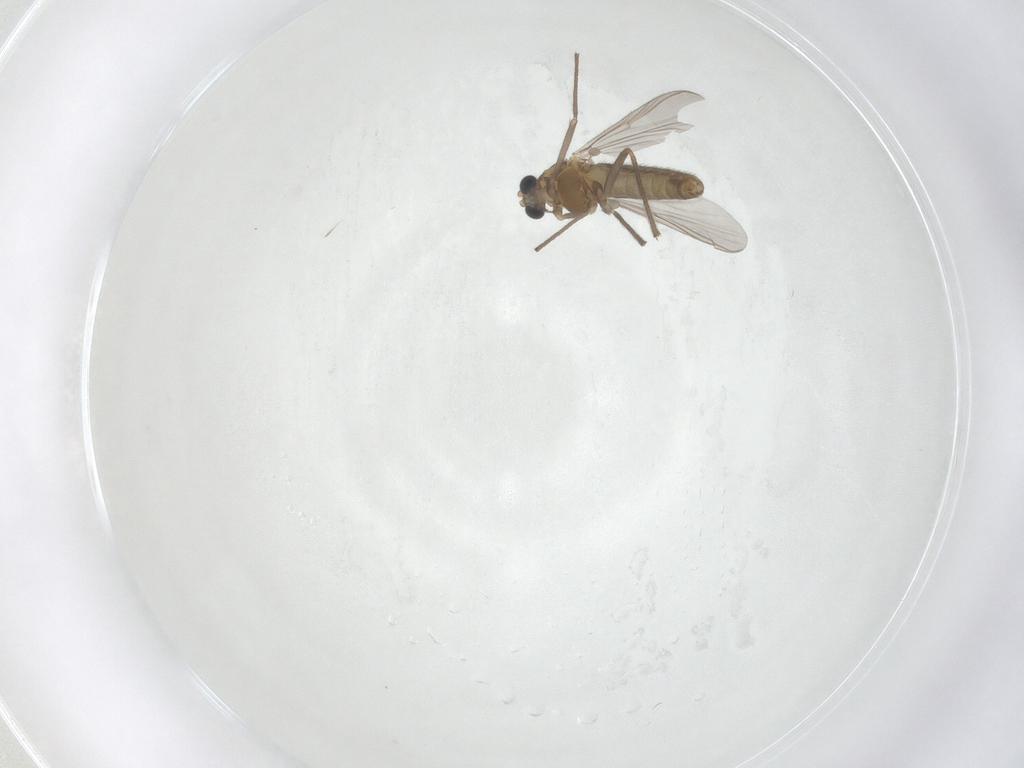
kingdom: Animalia
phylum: Arthropoda
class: Insecta
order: Diptera
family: Chironomidae
